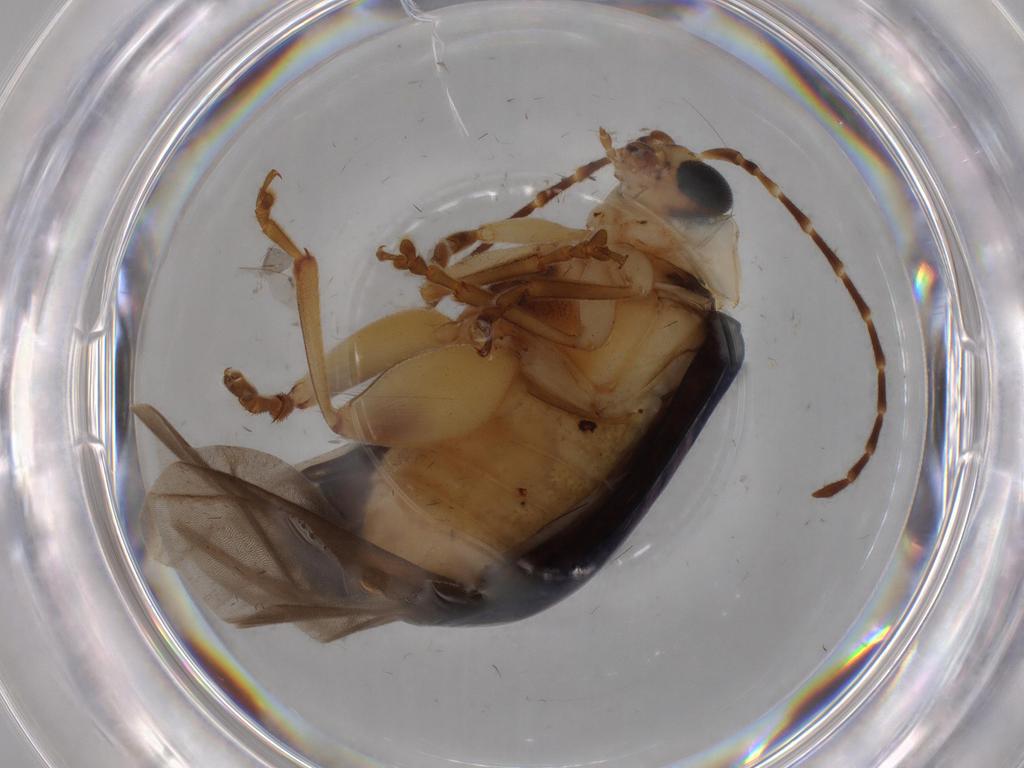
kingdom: Animalia
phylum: Arthropoda
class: Insecta
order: Coleoptera
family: Chrysomelidae
